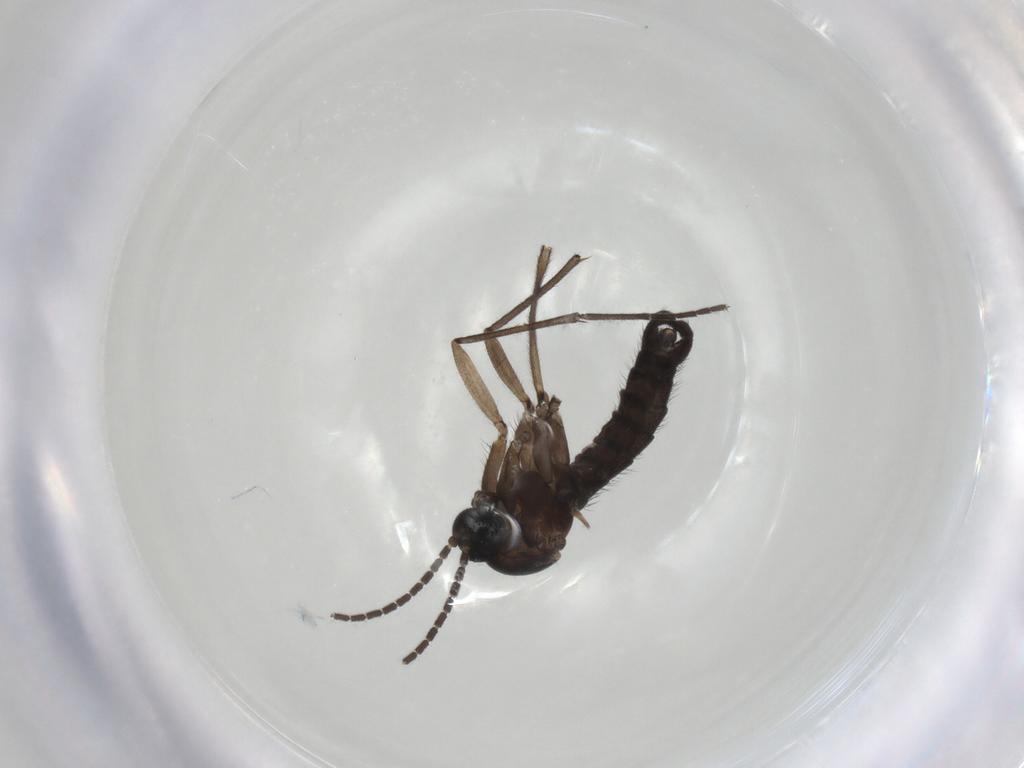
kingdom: Animalia
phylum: Arthropoda
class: Insecta
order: Diptera
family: Sciaridae
